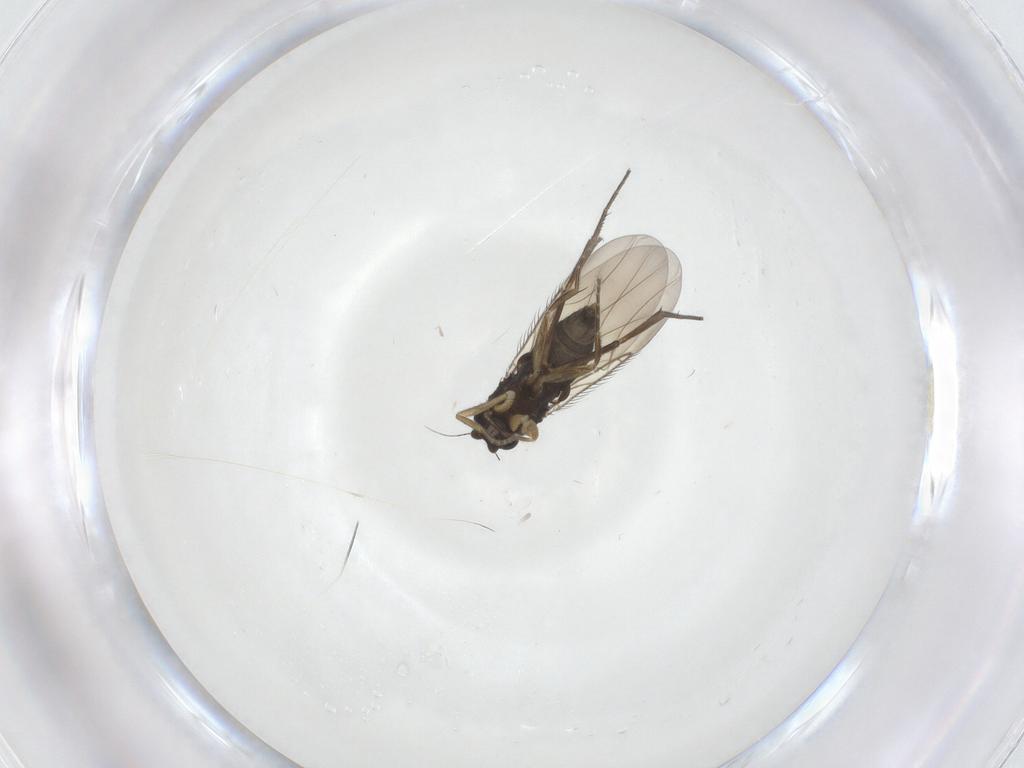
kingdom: Animalia
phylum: Arthropoda
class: Insecta
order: Diptera
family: Phoridae
